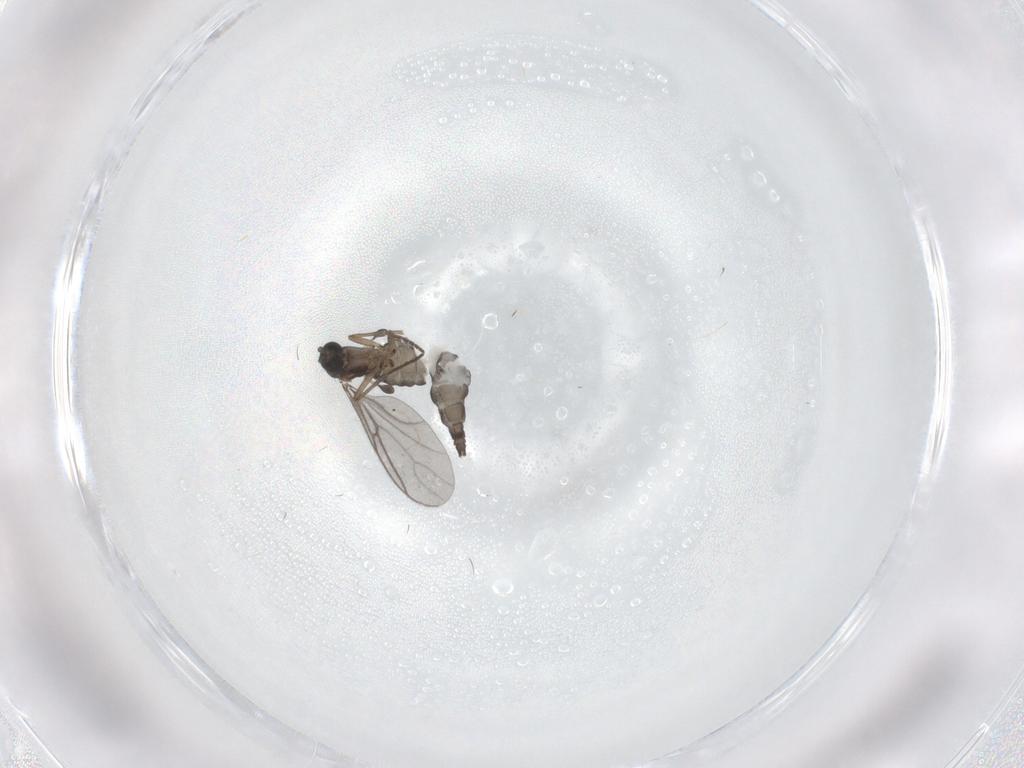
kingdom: Animalia
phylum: Arthropoda
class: Insecta
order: Diptera
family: Sciaridae
